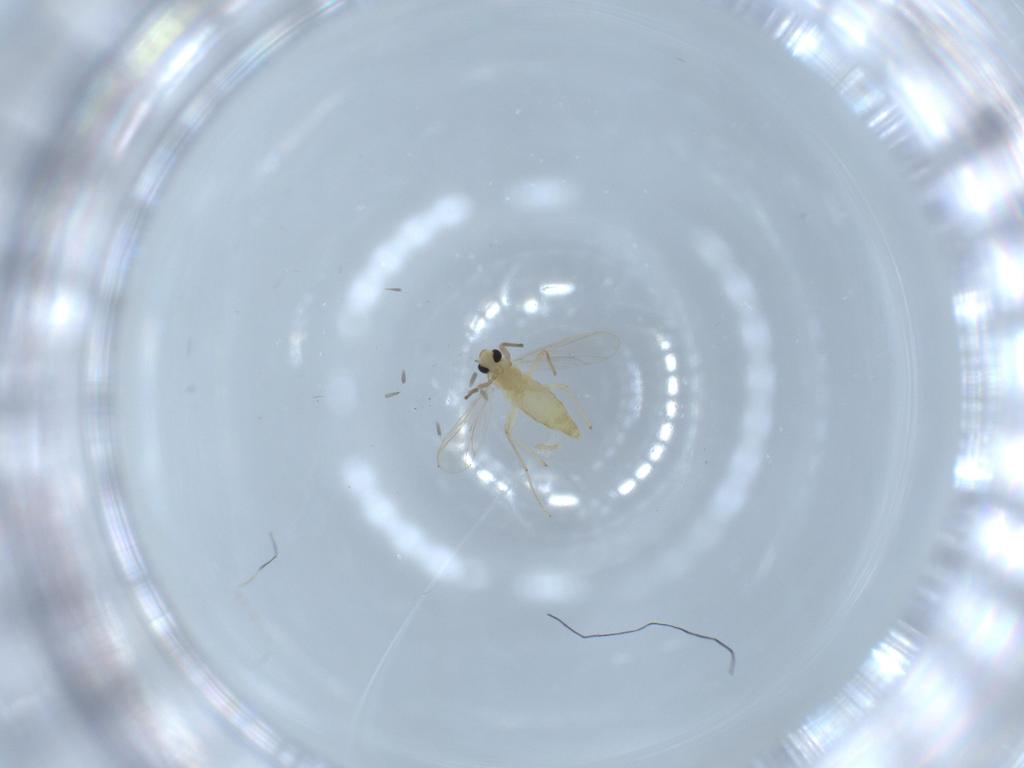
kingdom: Animalia
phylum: Arthropoda
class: Insecta
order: Diptera
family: Chironomidae
